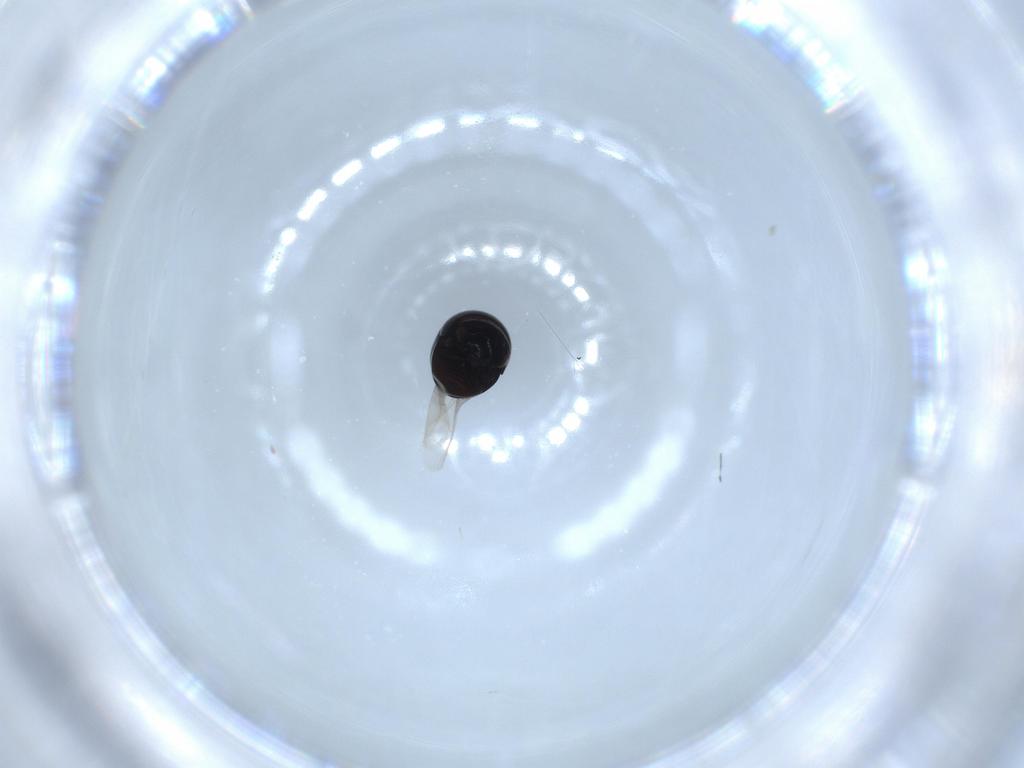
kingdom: Animalia
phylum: Arthropoda
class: Insecta
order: Coleoptera
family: Cybocephalidae
